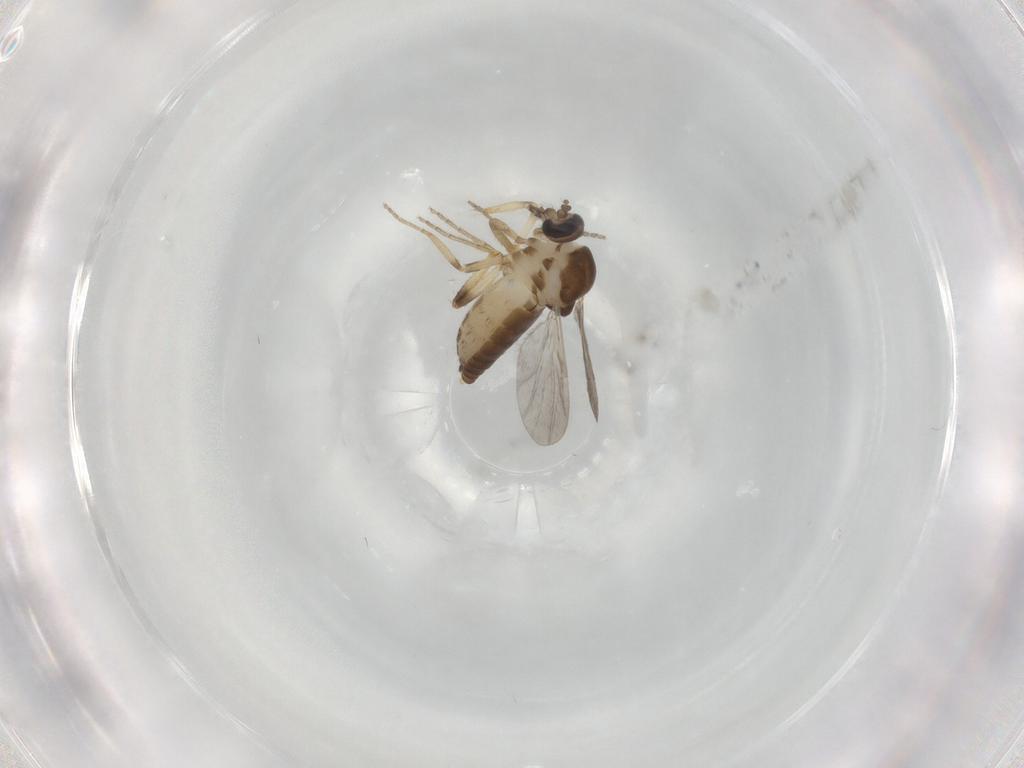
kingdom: Animalia
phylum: Arthropoda
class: Insecta
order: Diptera
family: Ceratopogonidae
